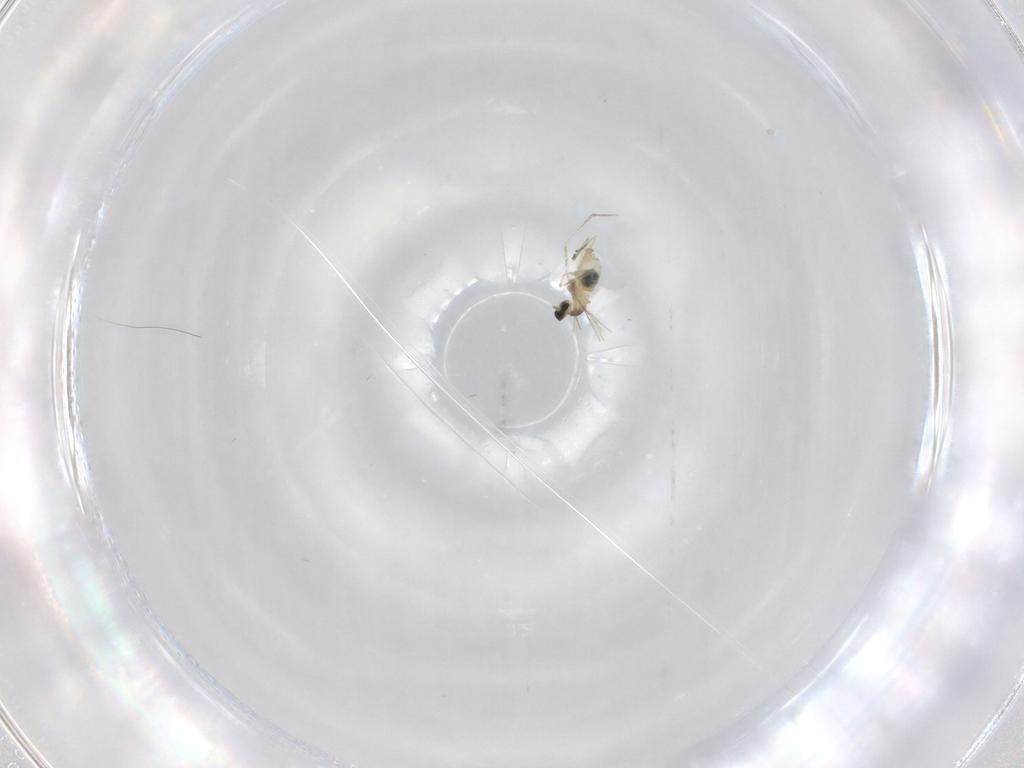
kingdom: Animalia
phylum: Arthropoda
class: Insecta
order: Diptera
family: Cecidomyiidae
